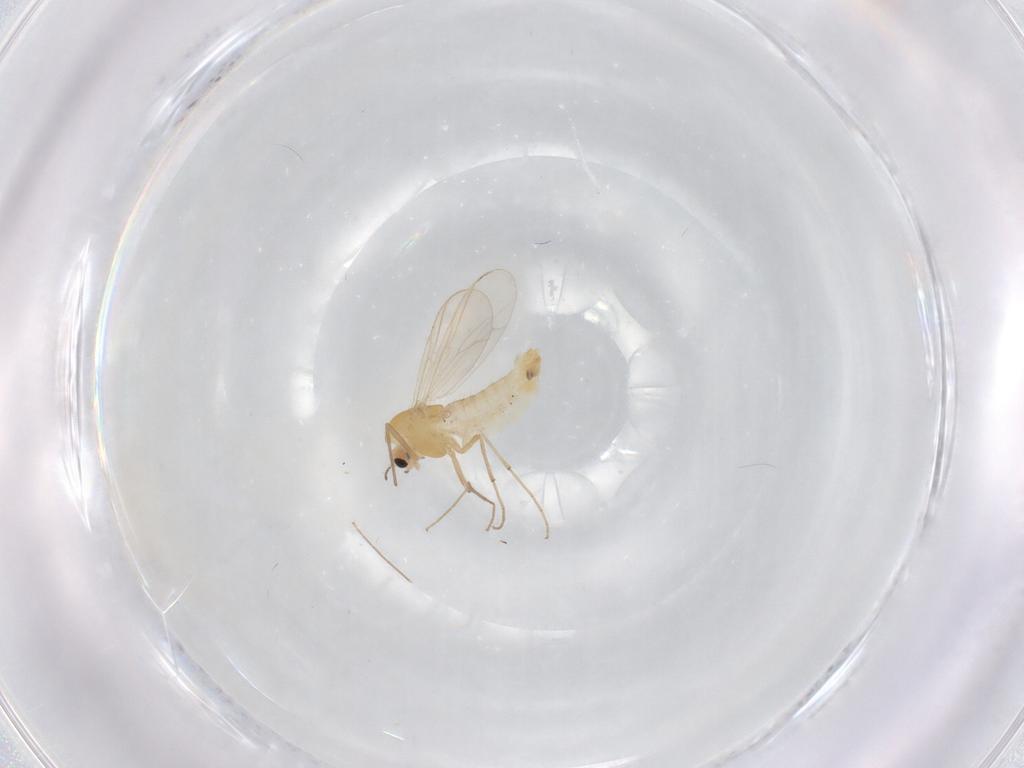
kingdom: Animalia
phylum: Arthropoda
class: Insecta
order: Diptera
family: Chironomidae
